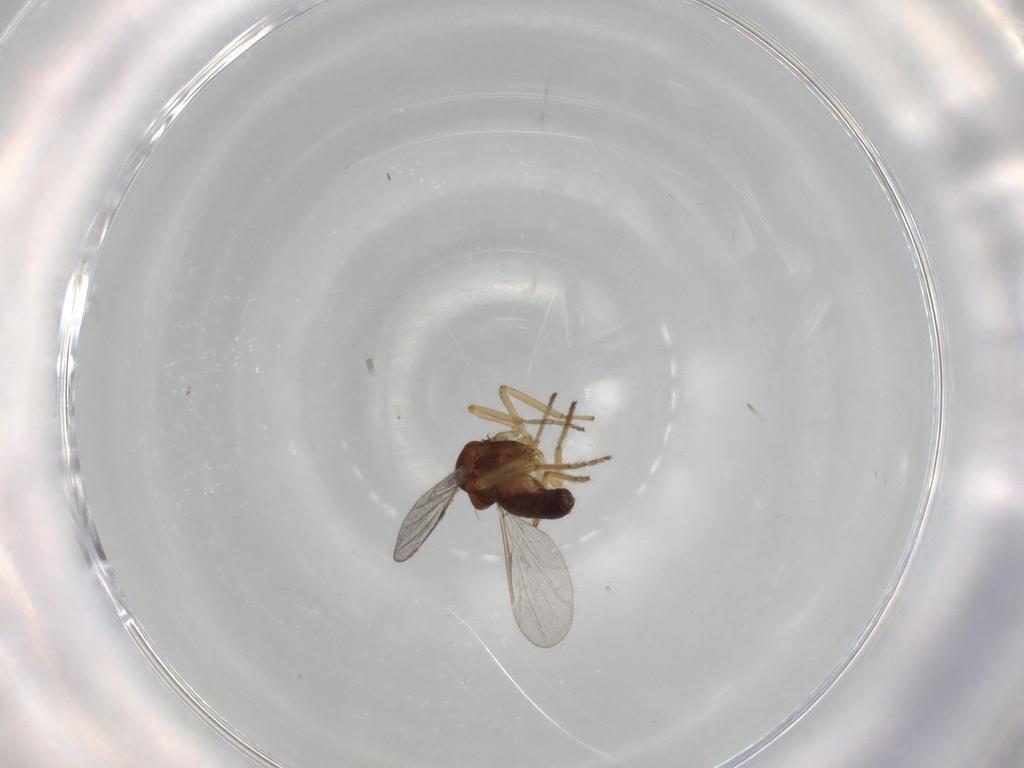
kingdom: Animalia
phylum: Arthropoda
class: Insecta
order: Diptera
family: Ceratopogonidae
